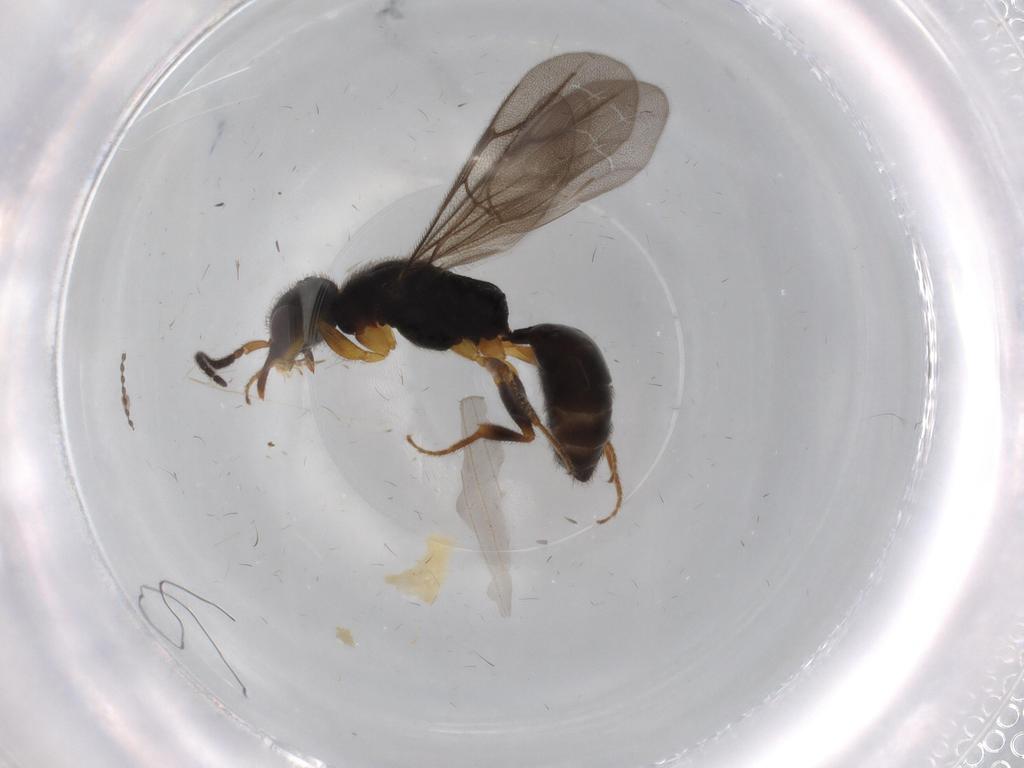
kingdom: Animalia
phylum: Arthropoda
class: Insecta
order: Hymenoptera
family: Bethylidae
